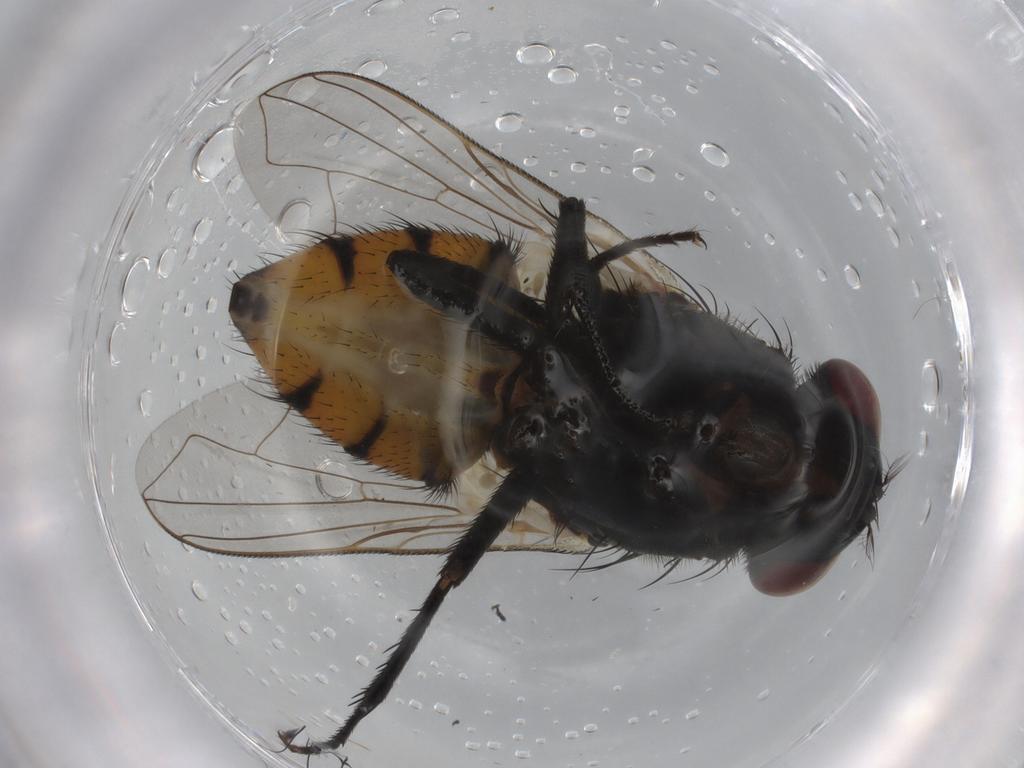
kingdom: Animalia
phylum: Arthropoda
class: Insecta
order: Diptera
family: Muscidae
